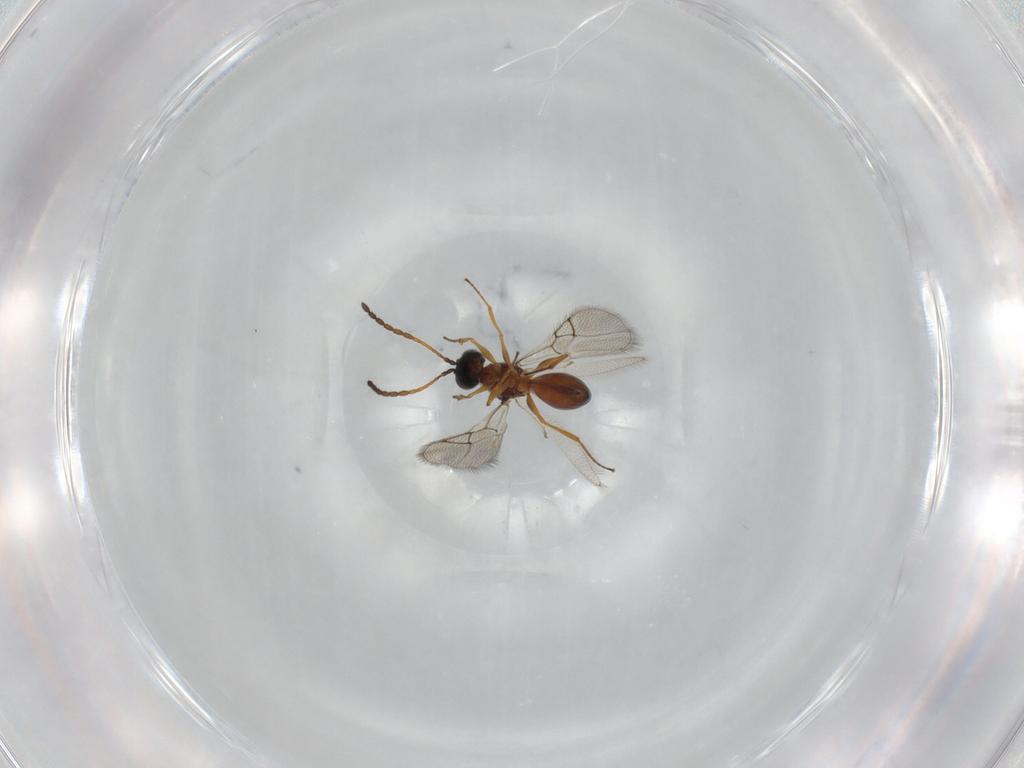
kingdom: Animalia
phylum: Arthropoda
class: Insecta
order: Hymenoptera
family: Figitidae
